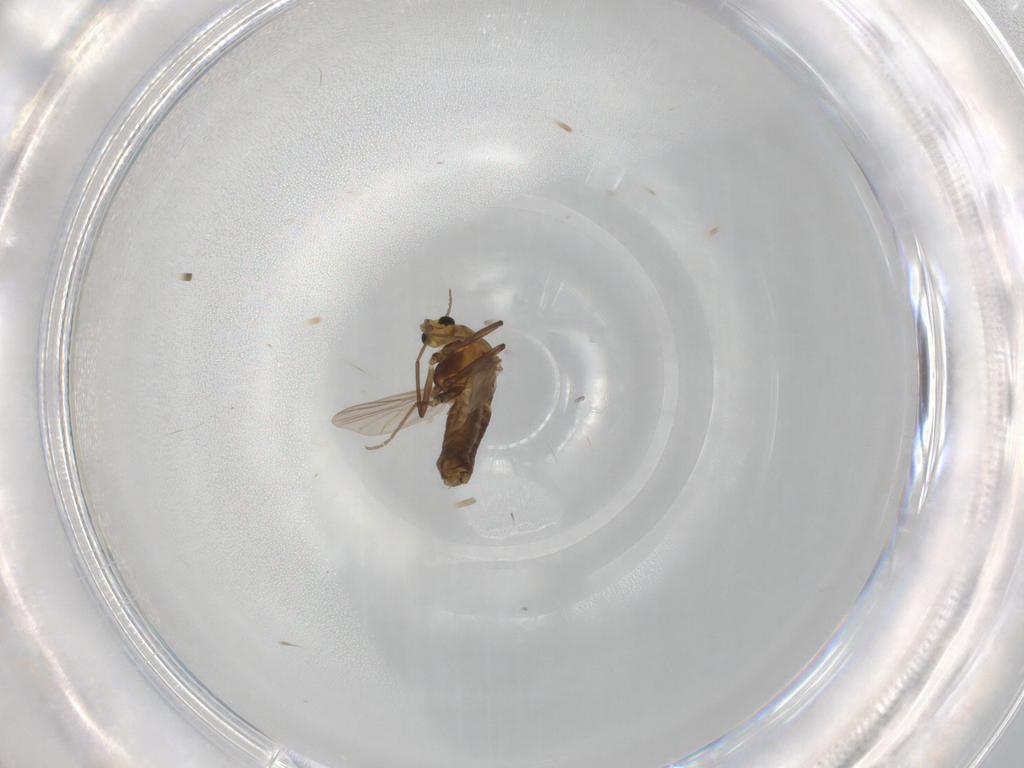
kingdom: Animalia
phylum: Arthropoda
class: Insecta
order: Diptera
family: Chironomidae
